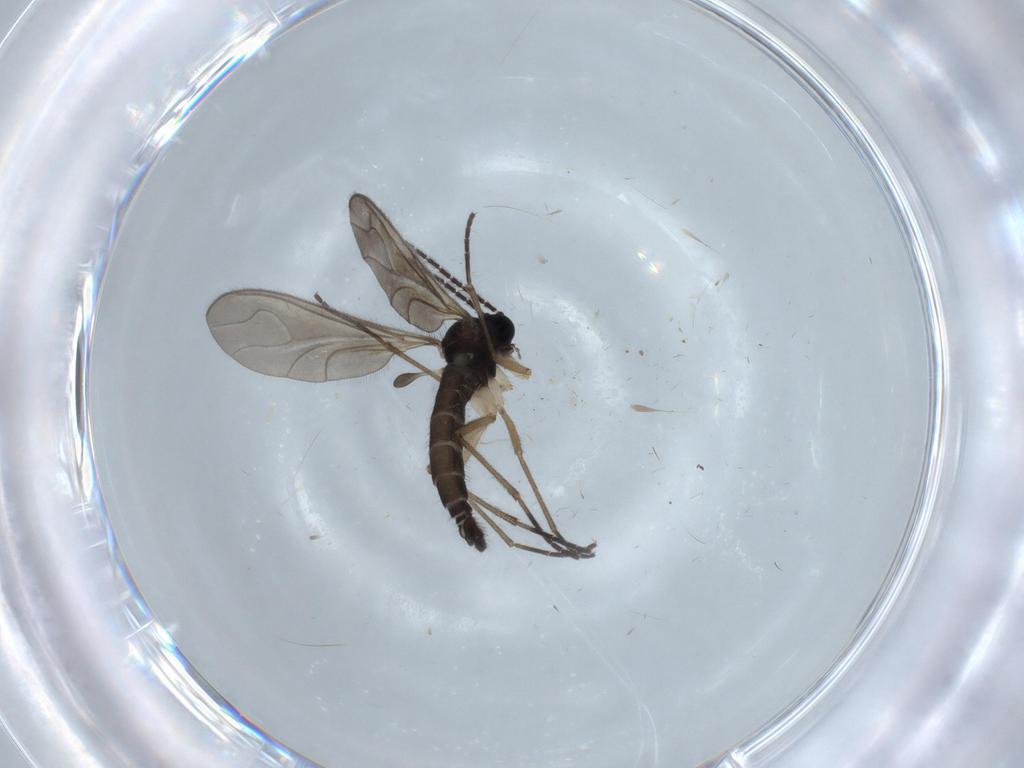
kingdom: Animalia
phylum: Arthropoda
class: Insecta
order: Diptera
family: Sciaridae
